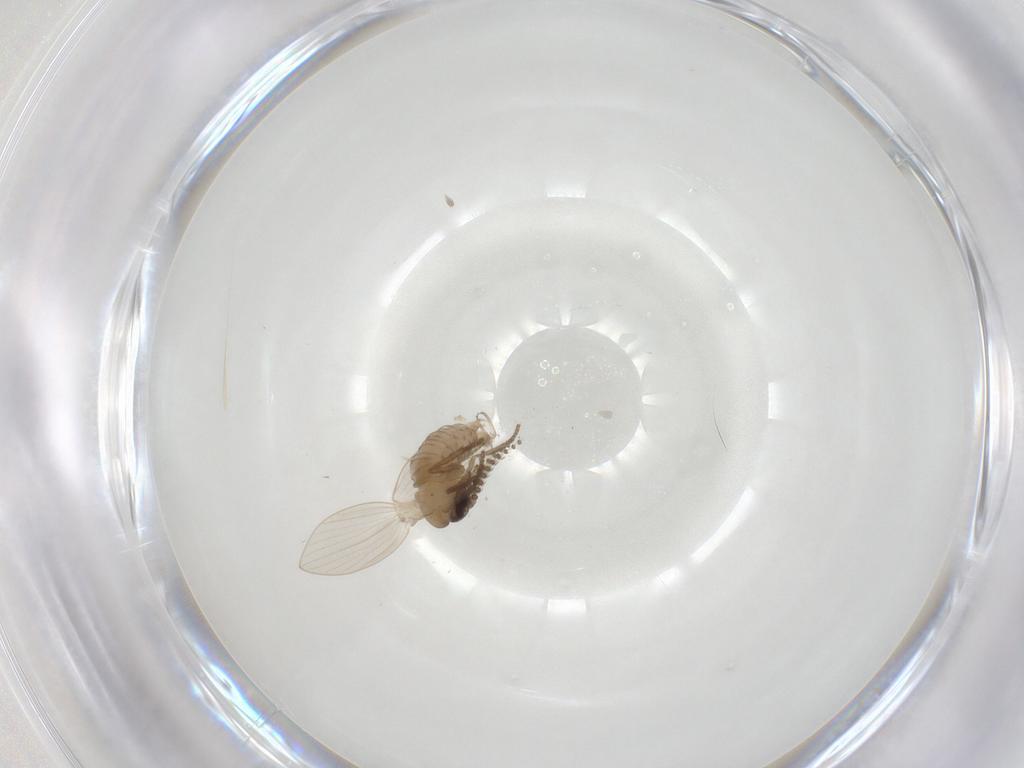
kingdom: Animalia
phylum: Arthropoda
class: Insecta
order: Diptera
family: Psychodidae
